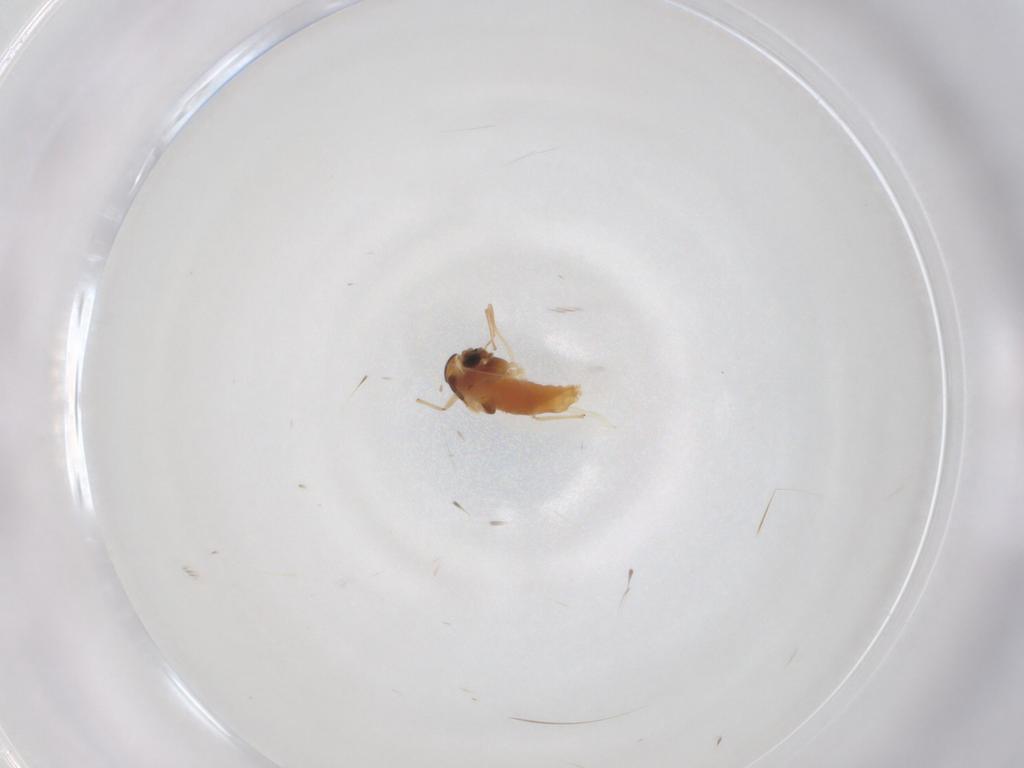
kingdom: Animalia
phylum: Arthropoda
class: Insecta
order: Diptera
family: Chironomidae
